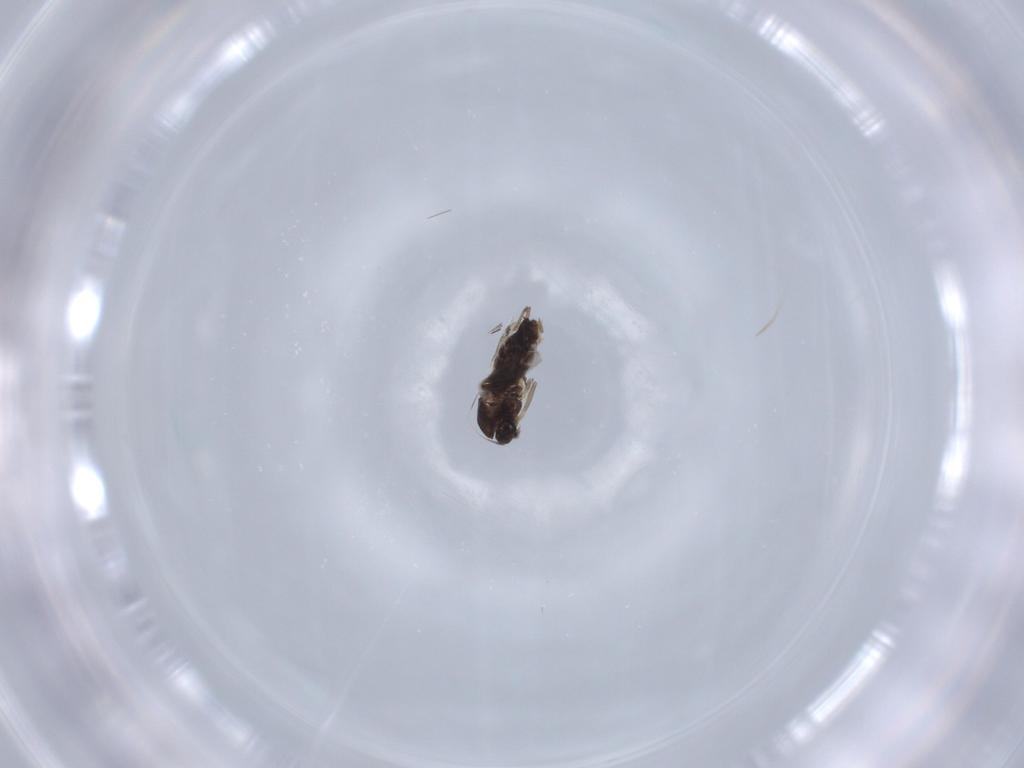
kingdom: Animalia
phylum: Arthropoda
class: Insecta
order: Diptera
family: Chironomidae
